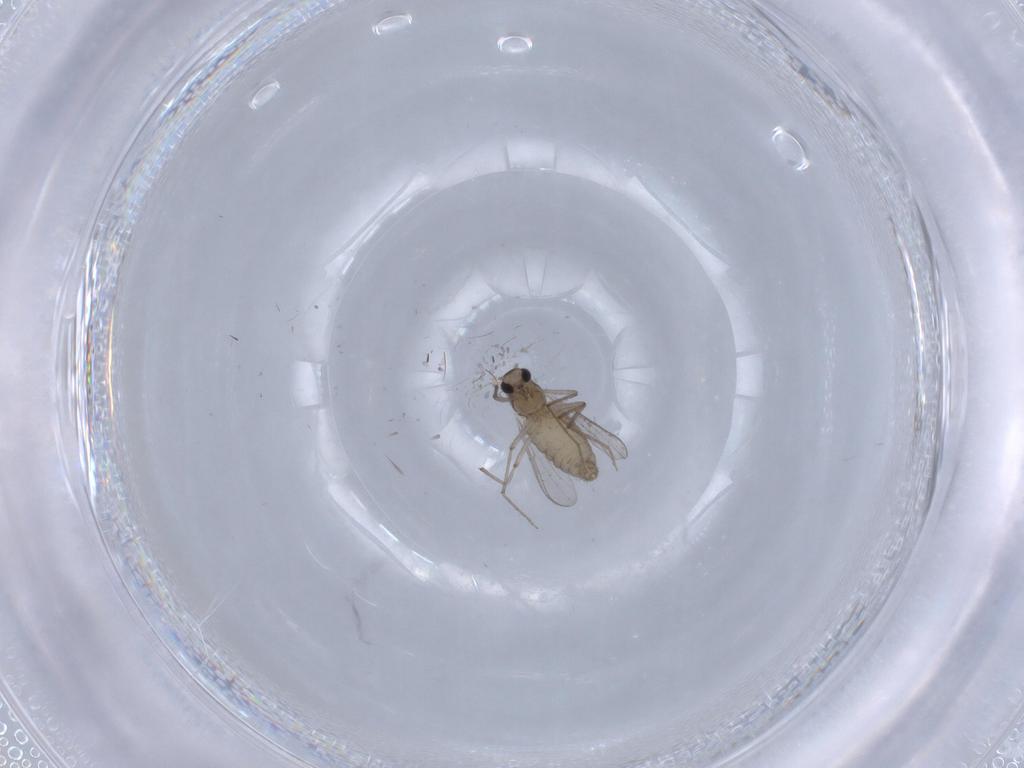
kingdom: Animalia
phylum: Arthropoda
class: Insecta
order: Diptera
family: Chironomidae
